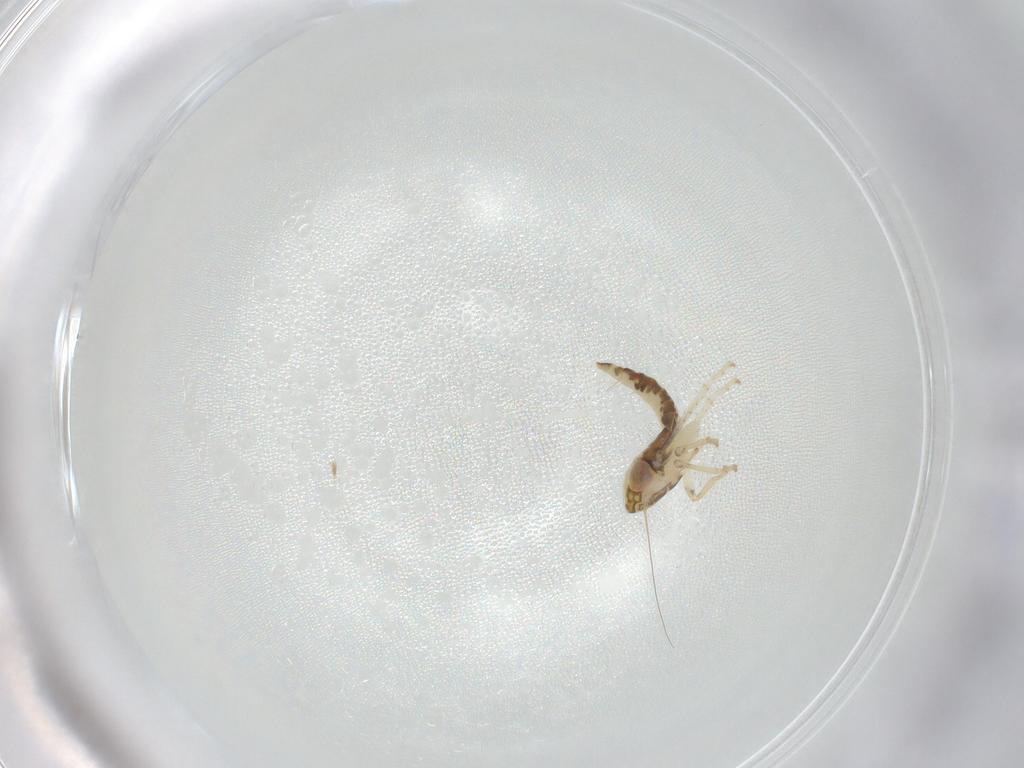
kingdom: Animalia
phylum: Arthropoda
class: Insecta
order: Hemiptera
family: Cicadellidae
